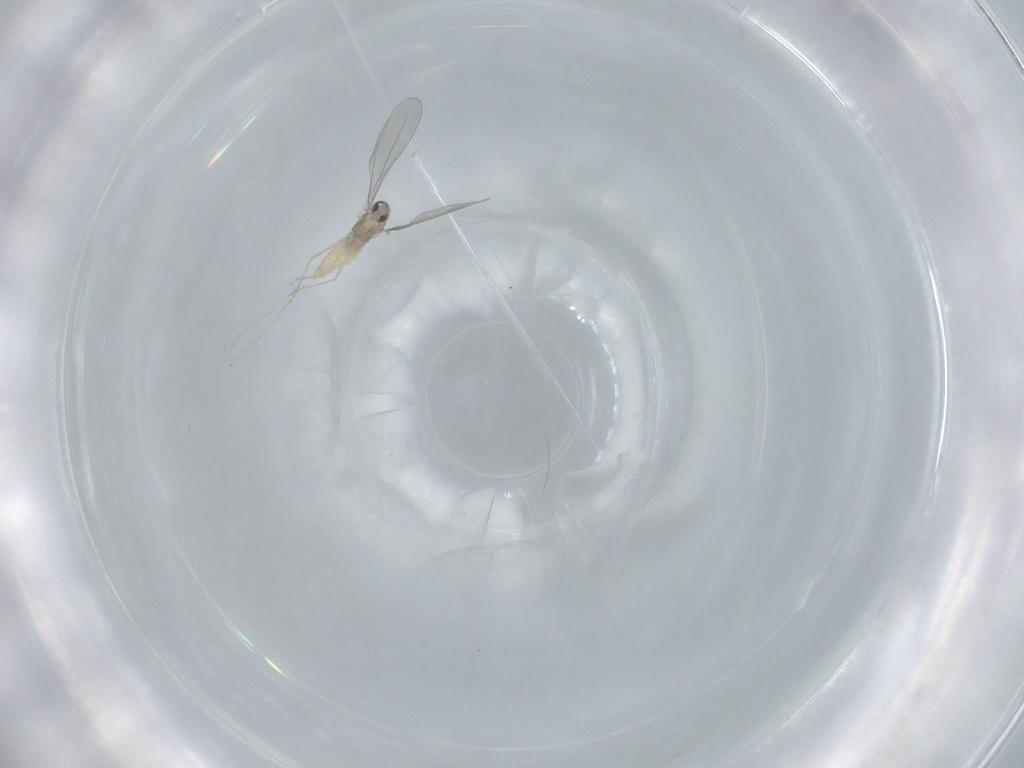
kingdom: Animalia
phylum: Arthropoda
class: Insecta
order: Diptera
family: Cecidomyiidae
